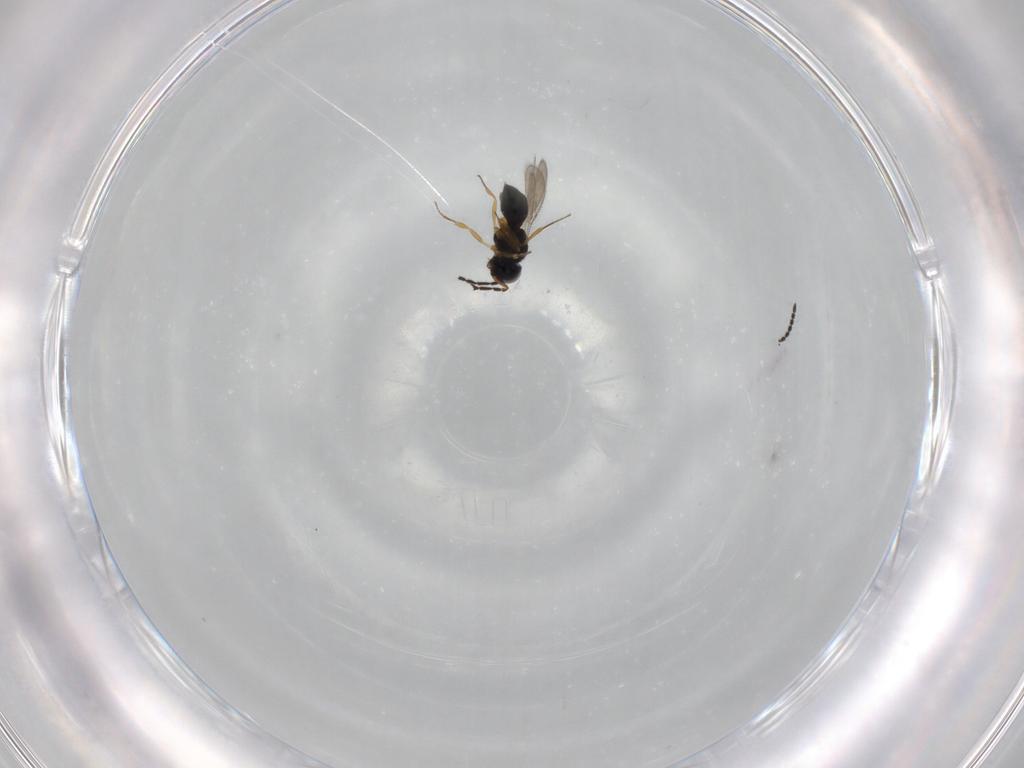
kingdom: Animalia
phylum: Arthropoda
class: Insecta
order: Hymenoptera
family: Scelionidae
